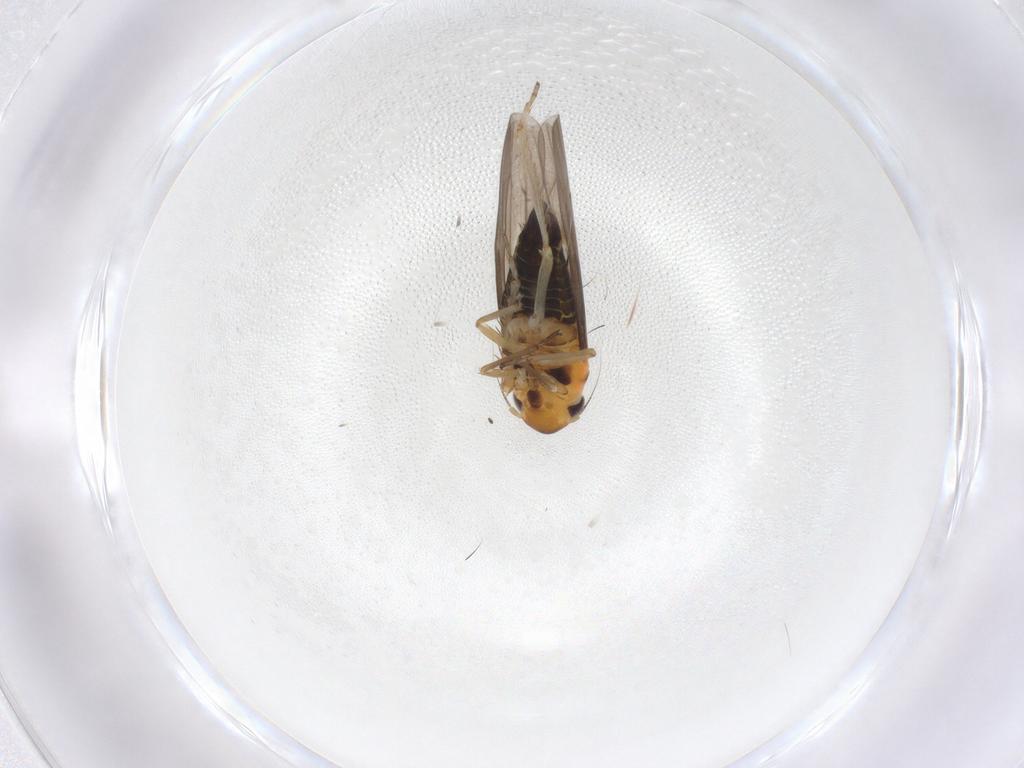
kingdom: Animalia
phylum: Arthropoda
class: Insecta
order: Hemiptera
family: Cicadellidae
